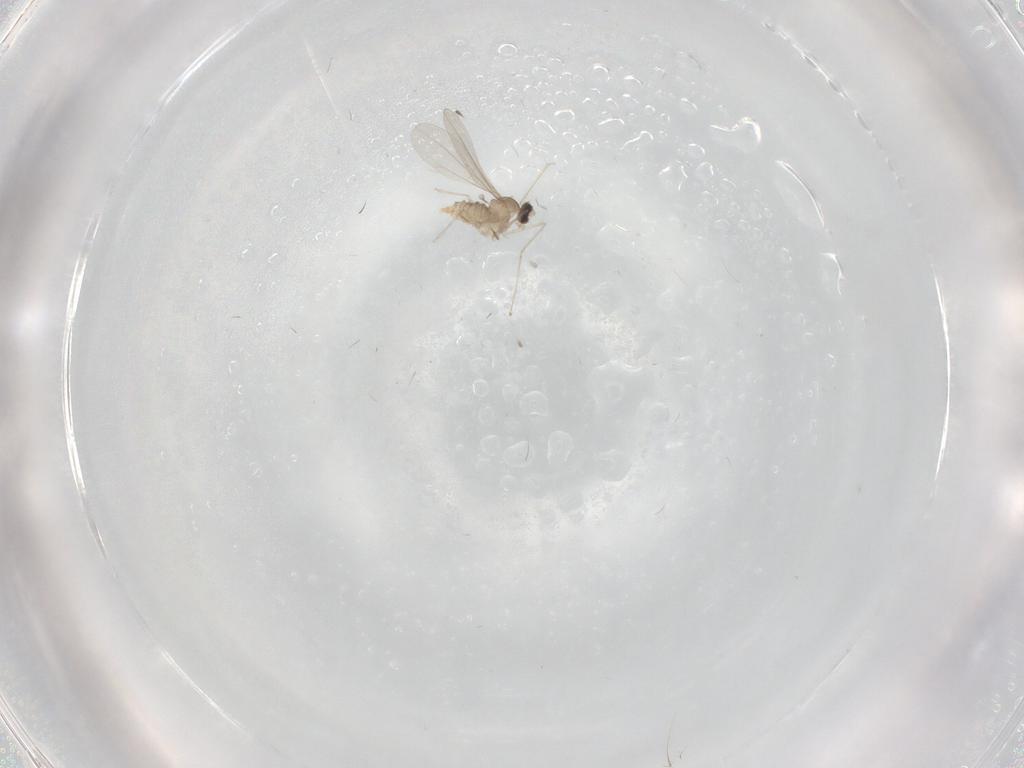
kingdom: Animalia
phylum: Arthropoda
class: Insecta
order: Diptera
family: Cecidomyiidae
